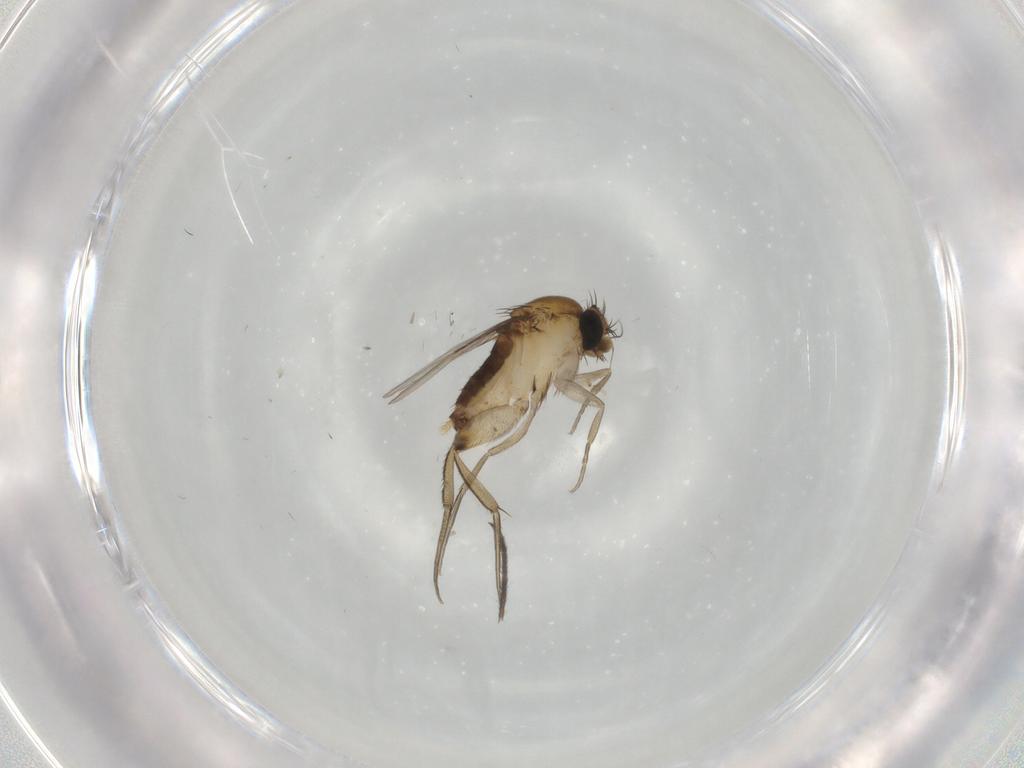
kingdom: Animalia
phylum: Arthropoda
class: Insecta
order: Diptera
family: Phoridae
